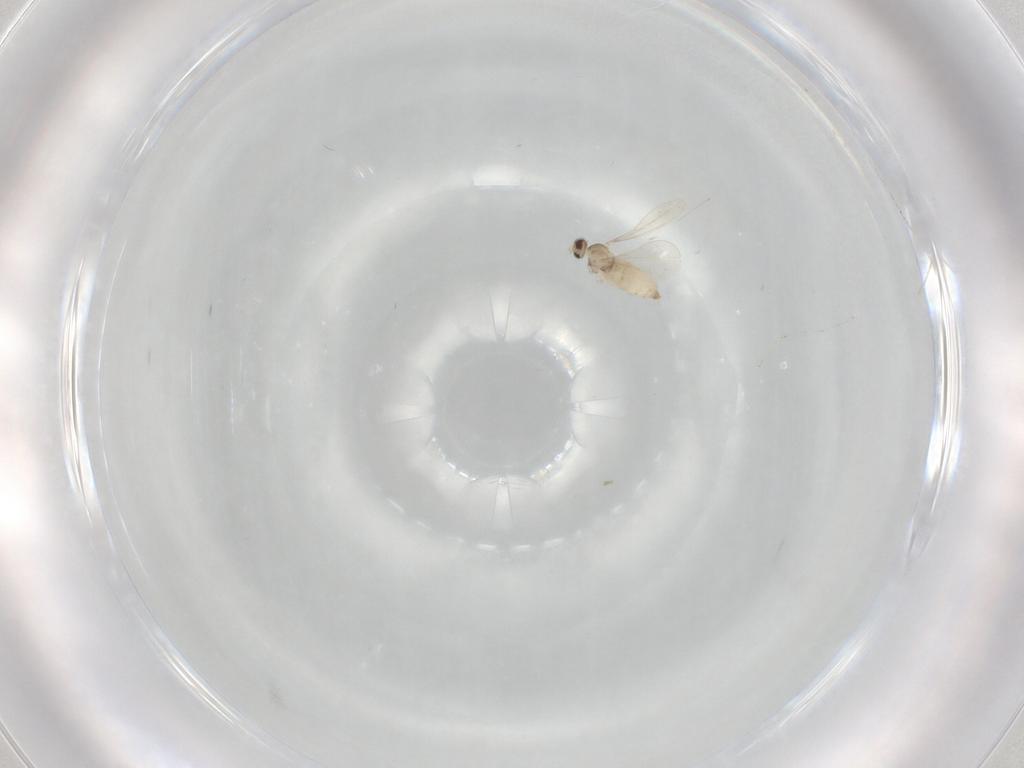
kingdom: Animalia
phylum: Arthropoda
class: Insecta
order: Diptera
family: Cecidomyiidae
